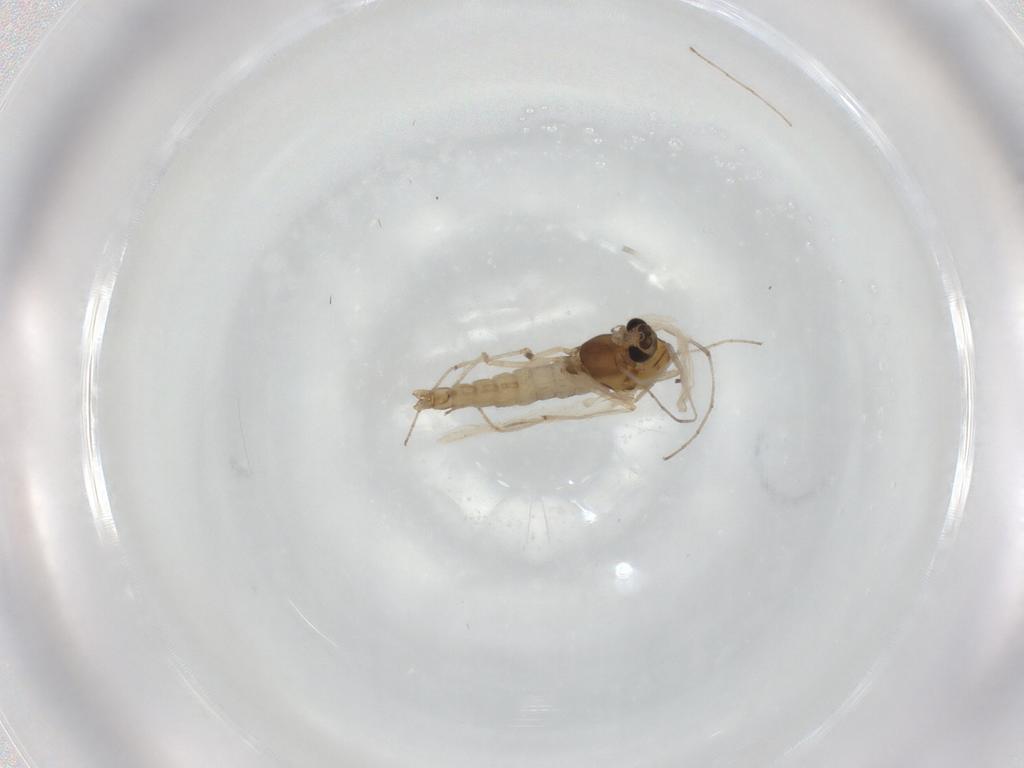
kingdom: Animalia
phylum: Arthropoda
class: Insecta
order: Diptera
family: Chironomidae
